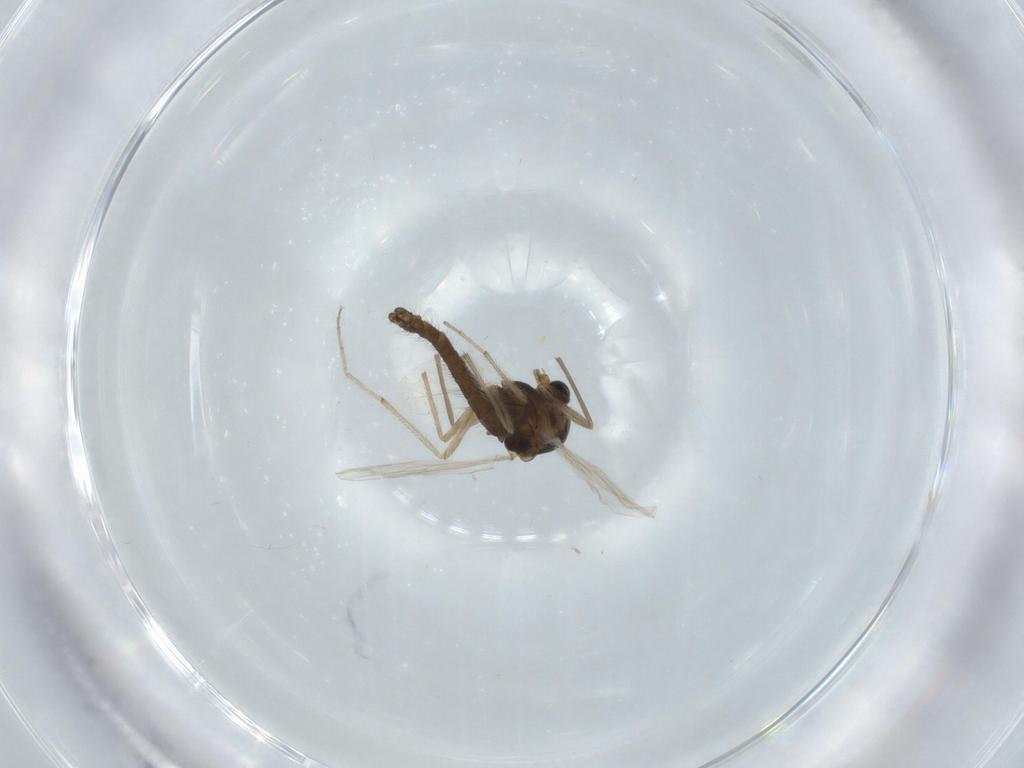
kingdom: Animalia
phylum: Arthropoda
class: Insecta
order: Diptera
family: Chironomidae
